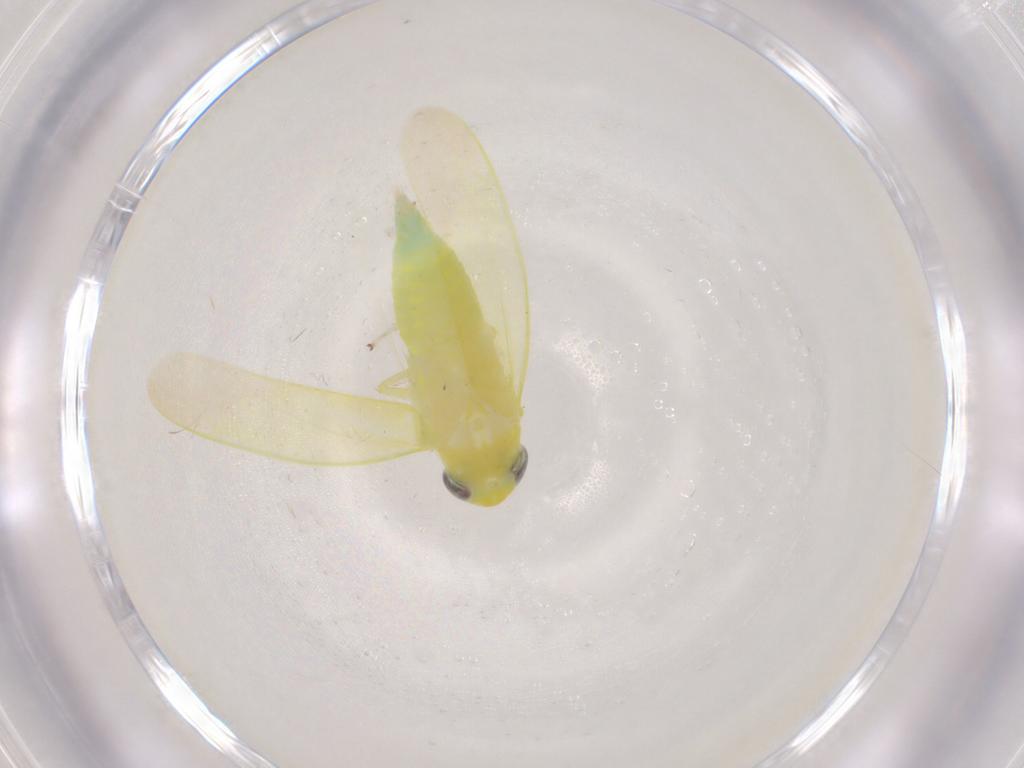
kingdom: Animalia
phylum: Arthropoda
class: Insecta
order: Hemiptera
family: Cicadellidae
